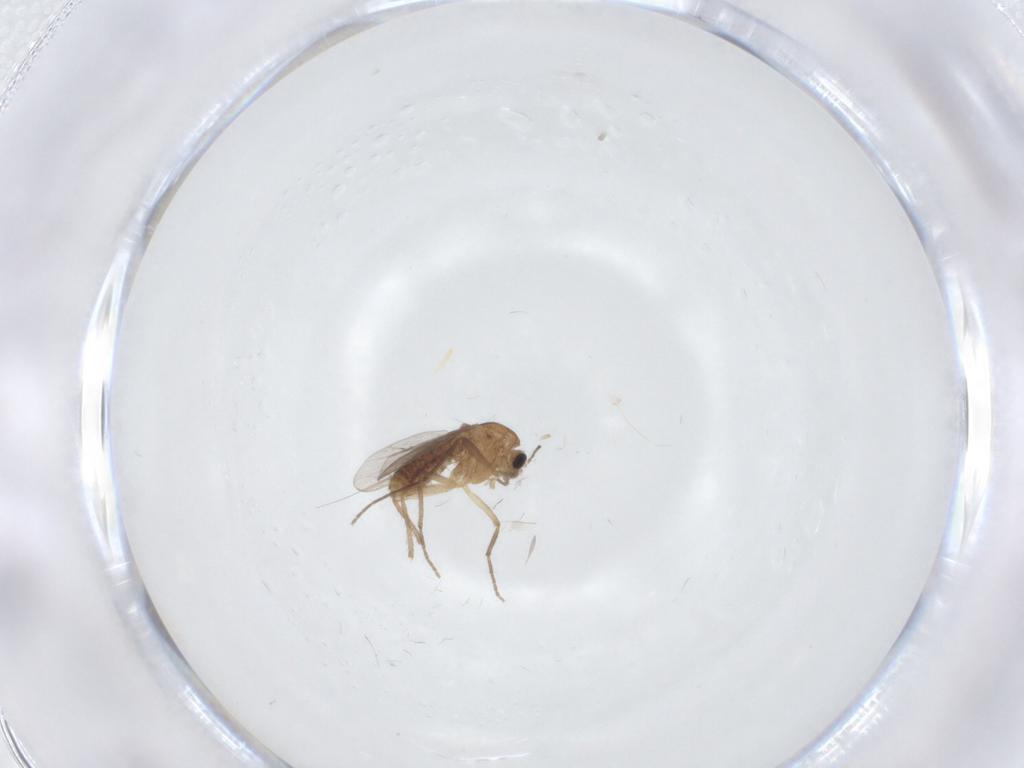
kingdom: Animalia
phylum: Arthropoda
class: Insecta
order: Diptera
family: Chironomidae
